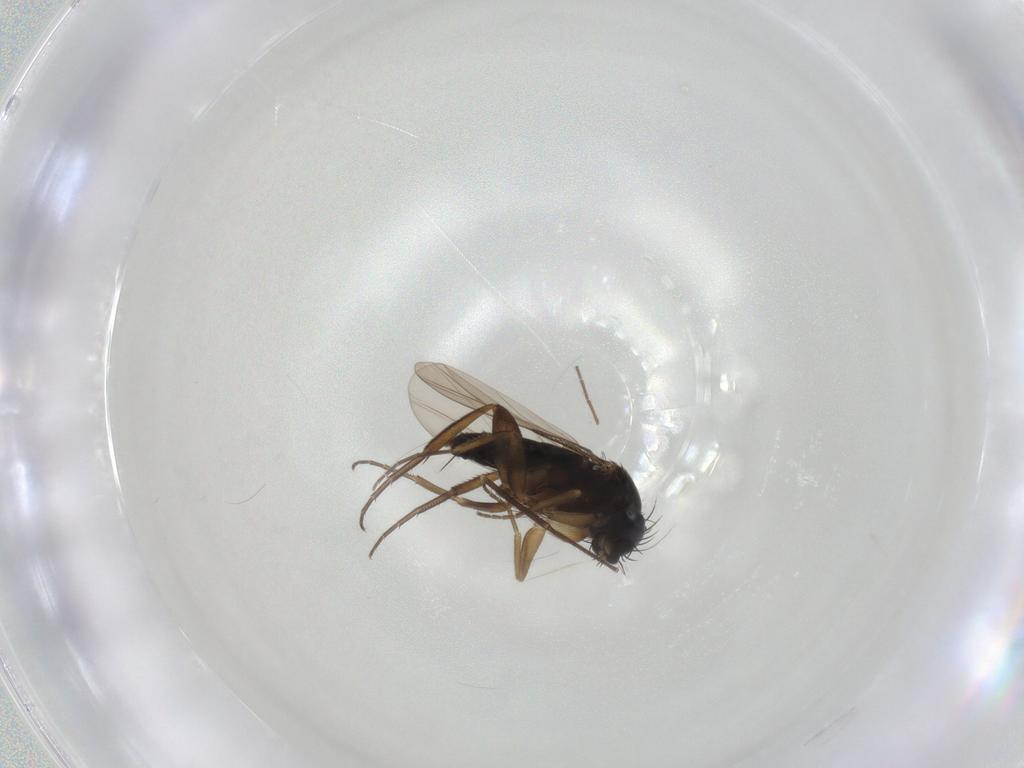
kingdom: Animalia
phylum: Arthropoda
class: Insecta
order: Diptera
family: Chironomidae
